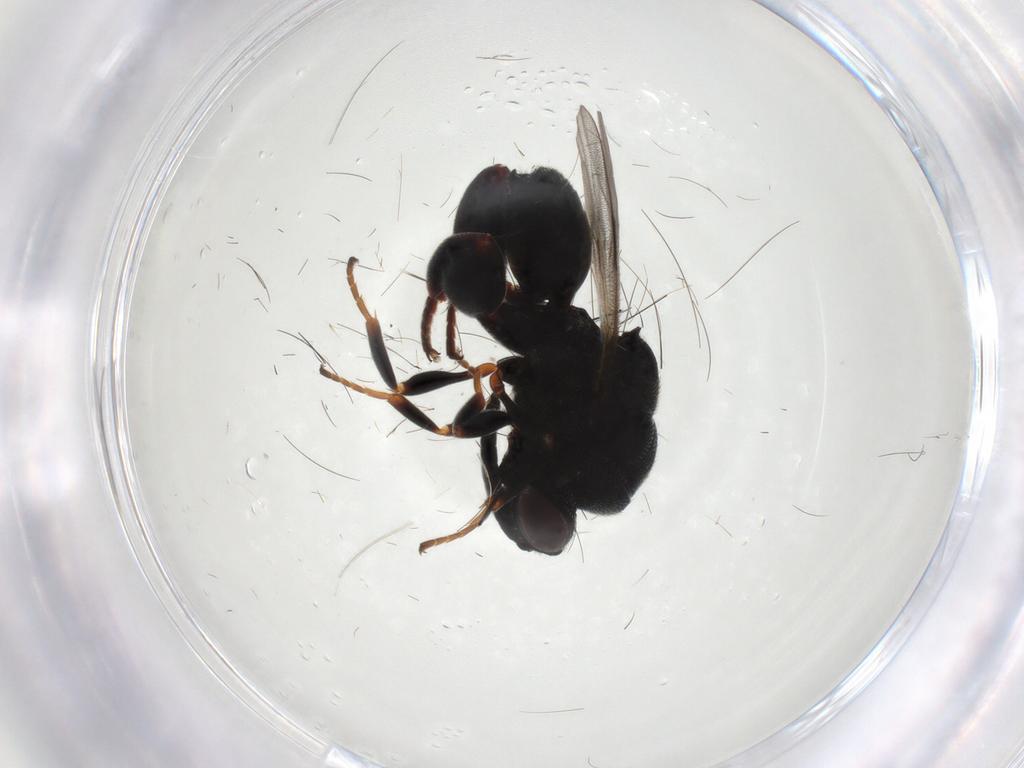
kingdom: Animalia
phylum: Arthropoda
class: Insecta
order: Hymenoptera
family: Chalcididae
